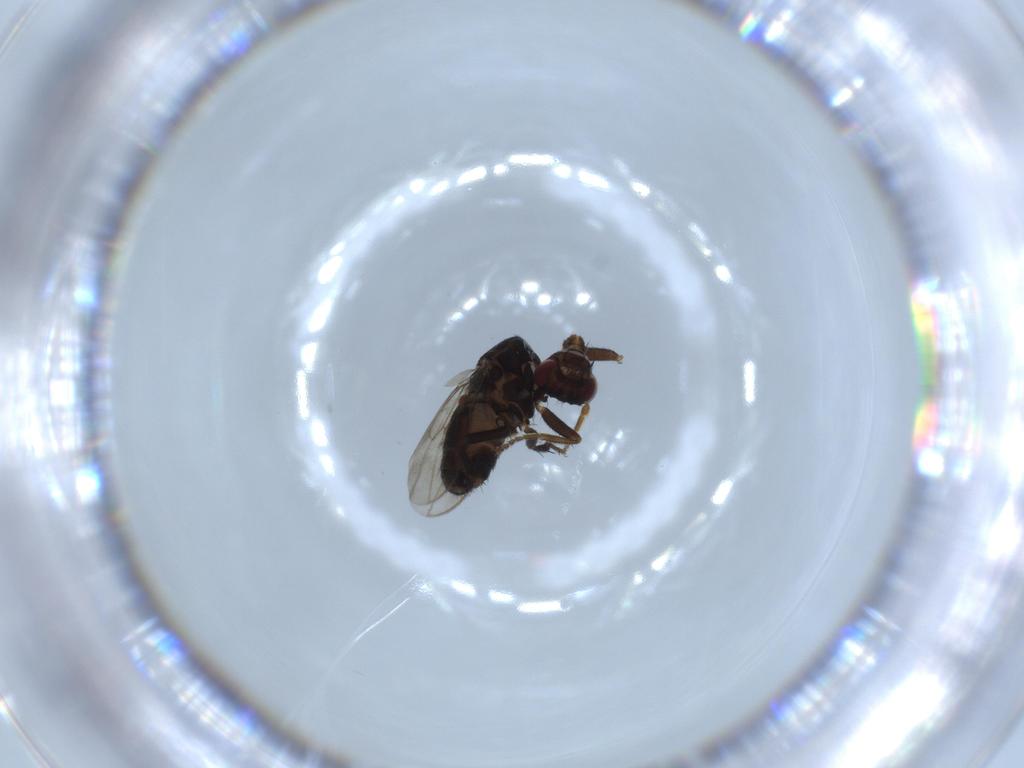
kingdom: Animalia
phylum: Arthropoda
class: Insecta
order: Diptera
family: Sphaeroceridae
